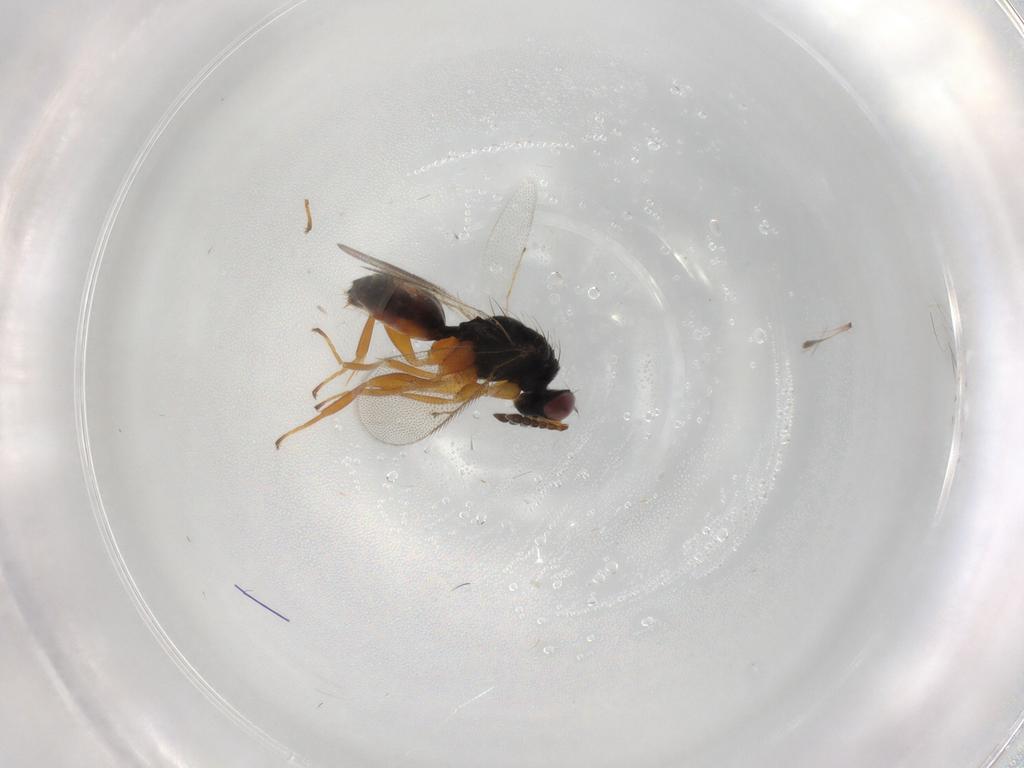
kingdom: Animalia
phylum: Arthropoda
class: Insecta
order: Hymenoptera
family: Eulophidae
